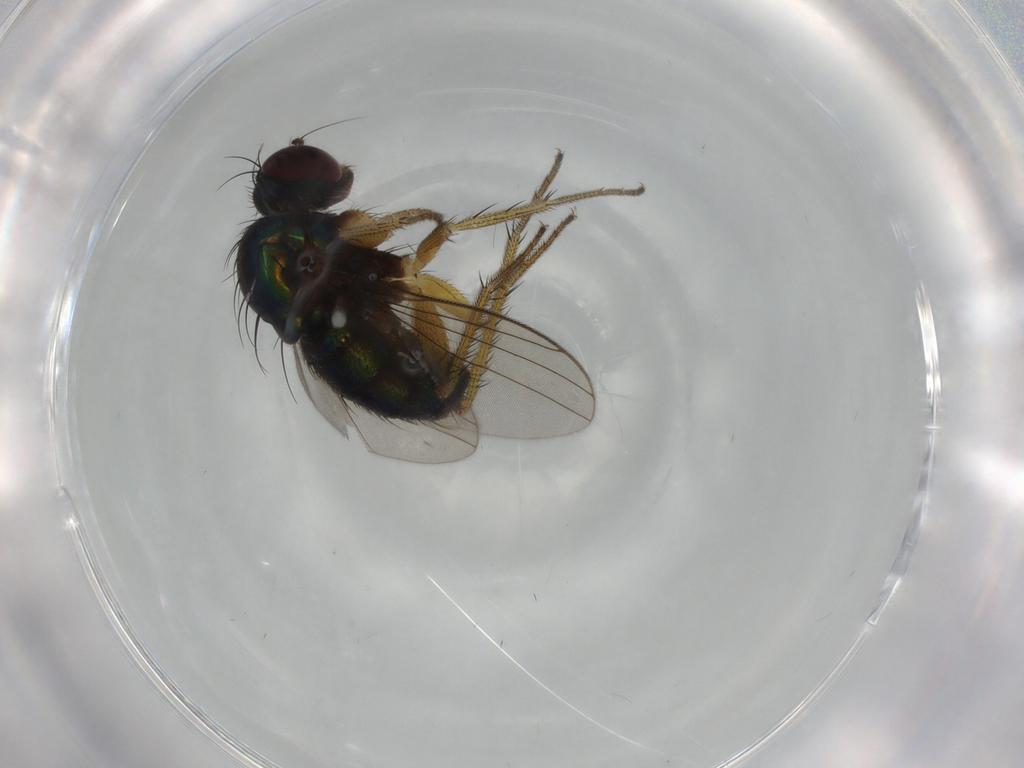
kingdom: Animalia
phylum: Arthropoda
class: Insecta
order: Diptera
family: Dolichopodidae
